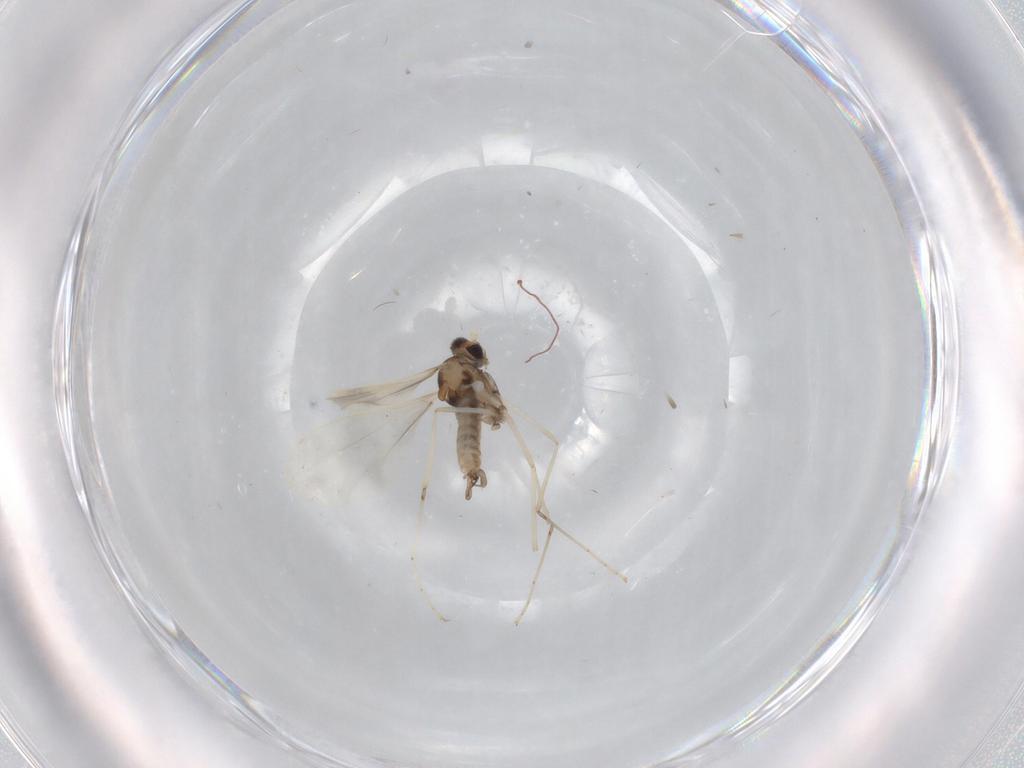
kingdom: Animalia
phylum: Arthropoda
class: Insecta
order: Diptera
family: Cecidomyiidae
